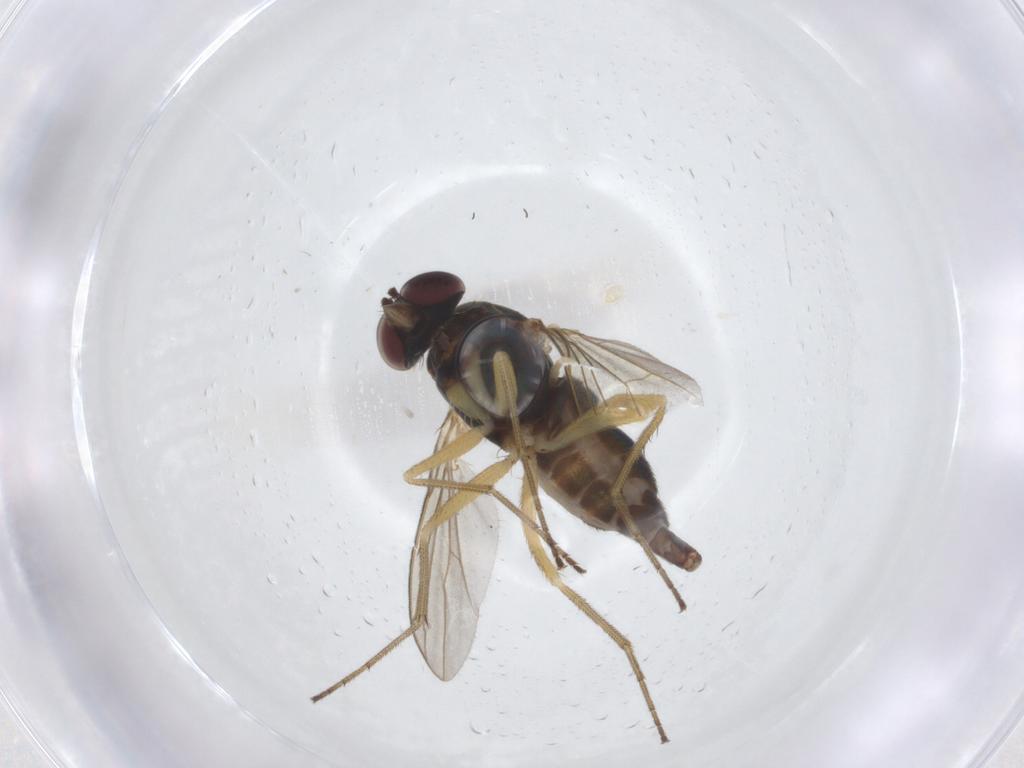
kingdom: Animalia
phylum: Arthropoda
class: Insecta
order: Diptera
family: Dolichopodidae
